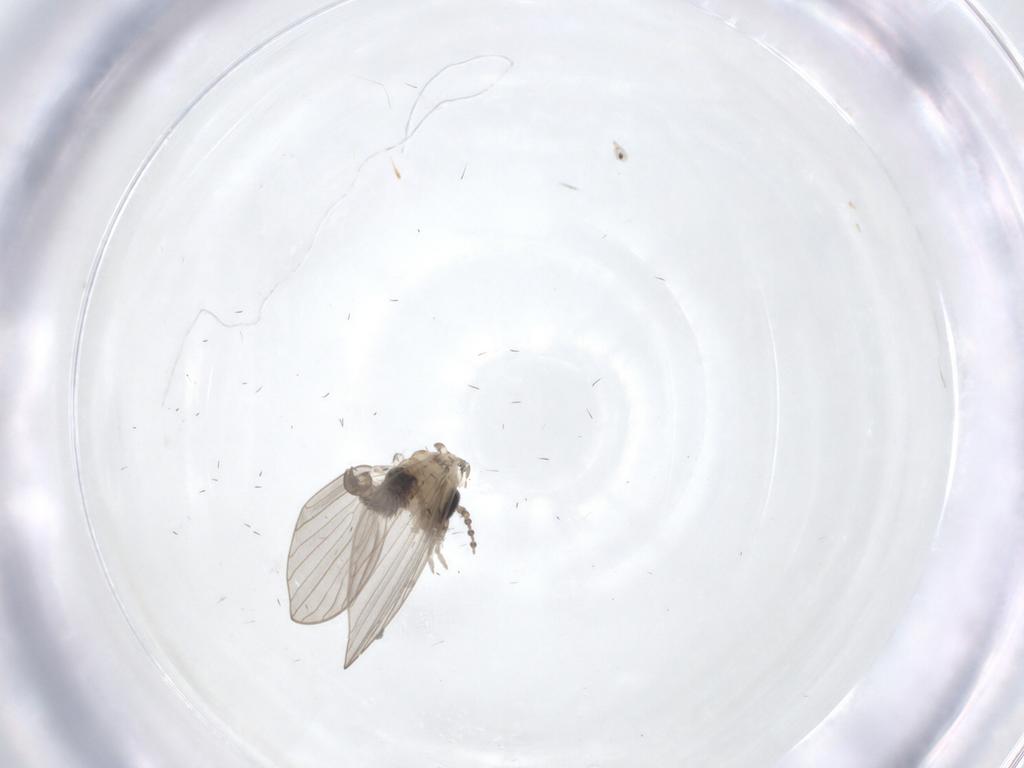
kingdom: Animalia
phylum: Arthropoda
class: Insecta
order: Diptera
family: Psychodidae
